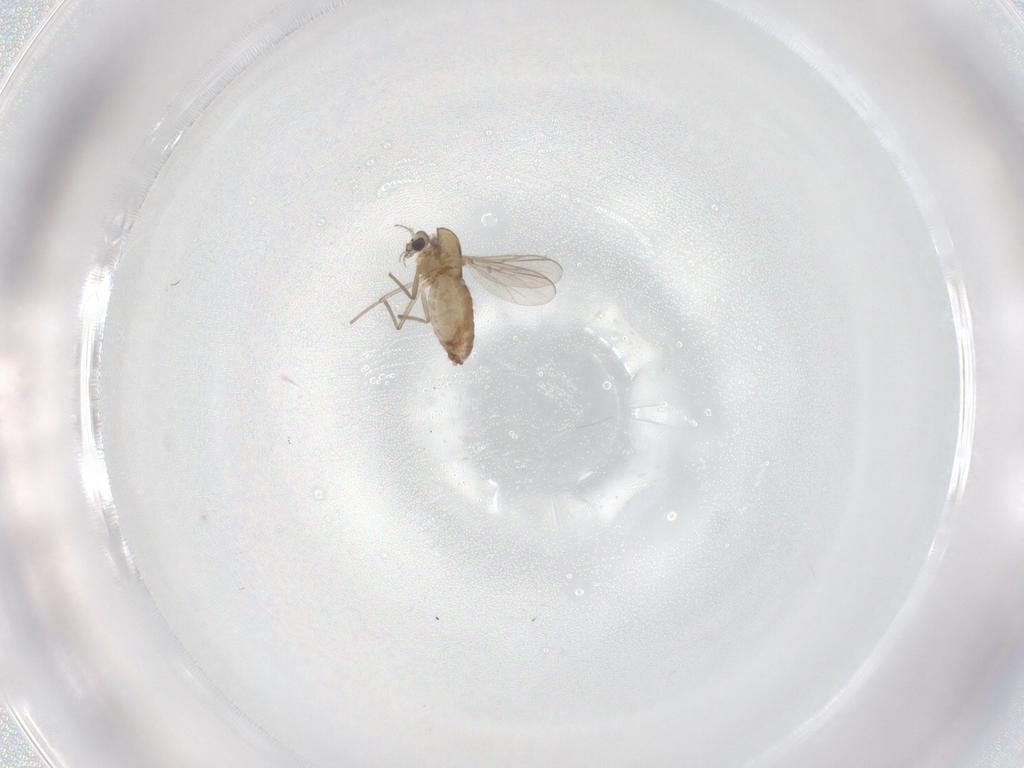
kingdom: Animalia
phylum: Arthropoda
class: Insecta
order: Diptera
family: Chironomidae
